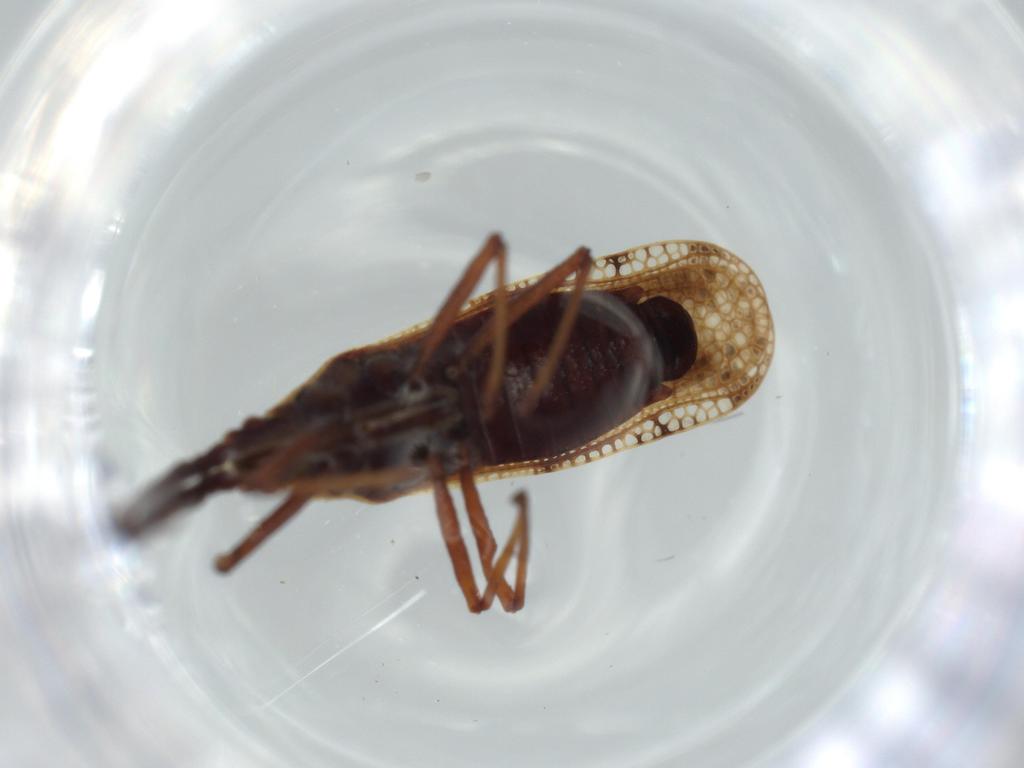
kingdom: Animalia
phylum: Arthropoda
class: Insecta
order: Hemiptera
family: Tingidae
